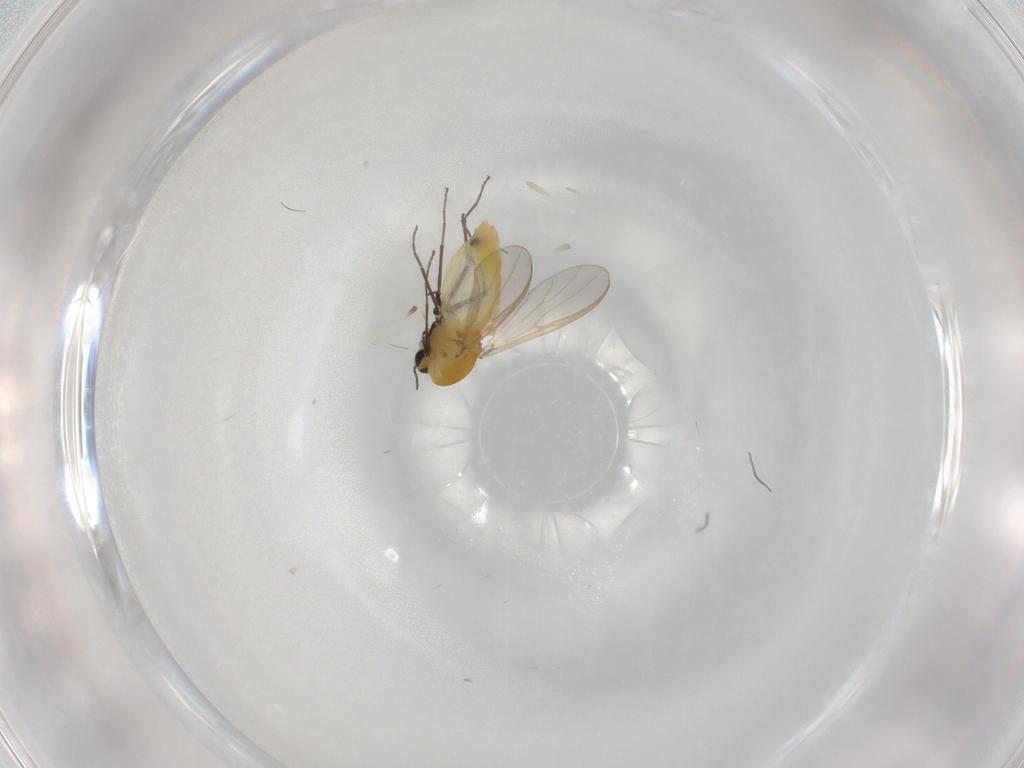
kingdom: Animalia
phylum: Arthropoda
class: Insecta
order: Diptera
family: Chironomidae
